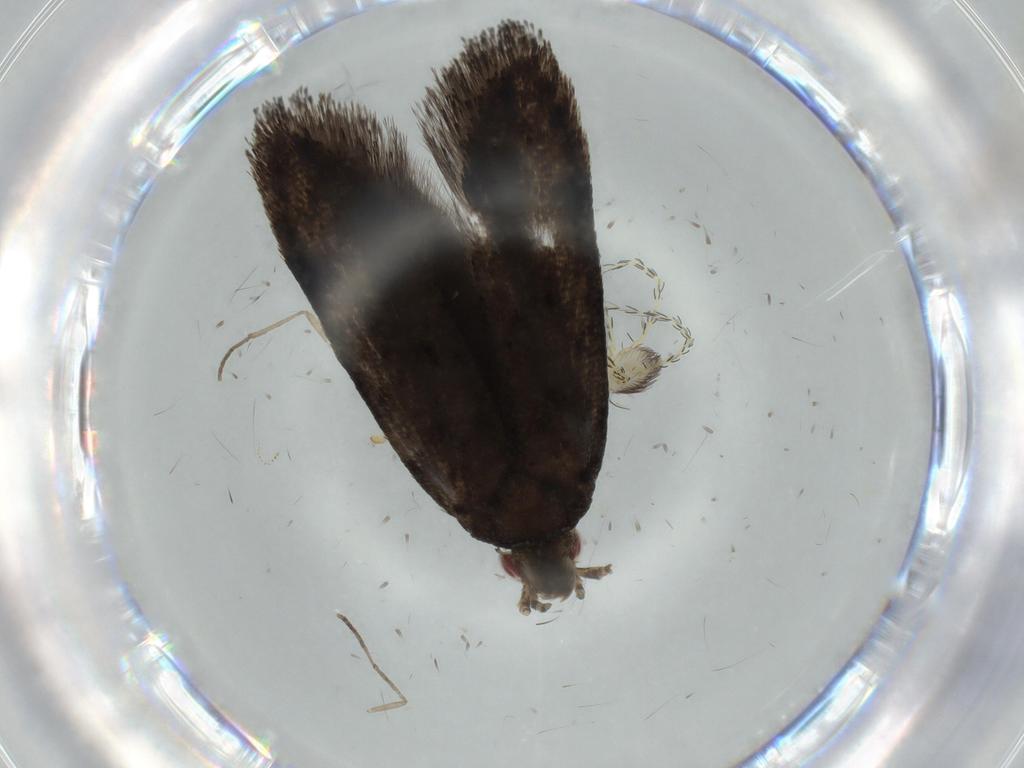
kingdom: Animalia
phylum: Arthropoda
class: Arachnida
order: Trombidiformes
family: Erythraeidae
